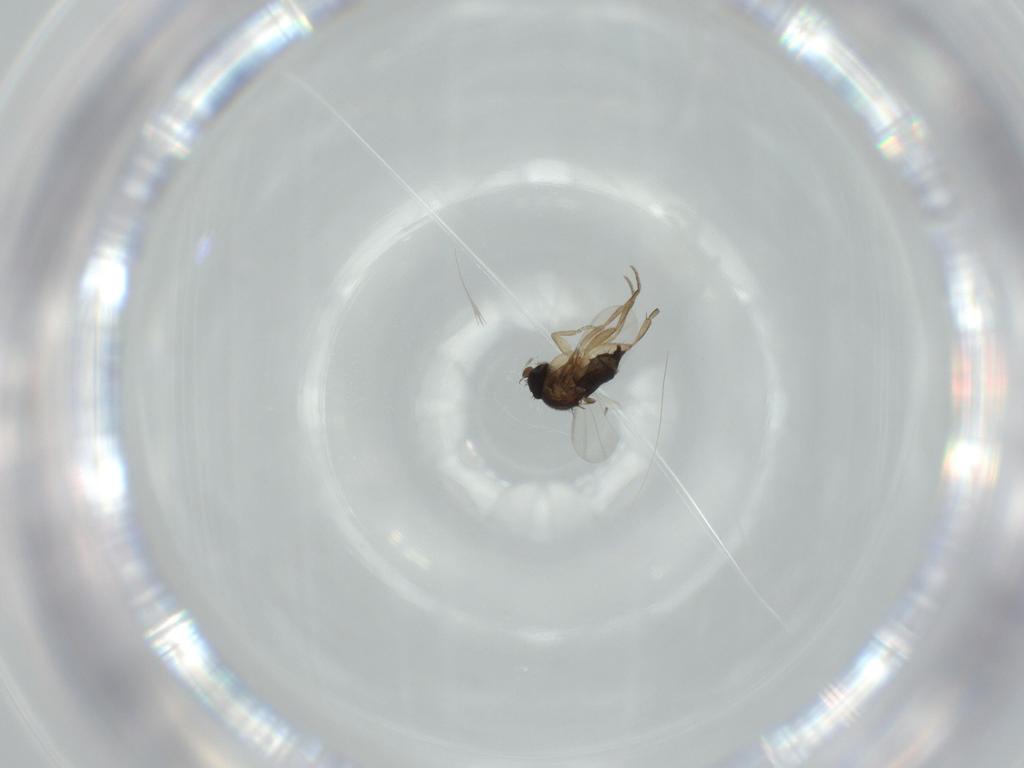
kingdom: Animalia
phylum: Arthropoda
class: Insecta
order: Diptera
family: Phoridae
